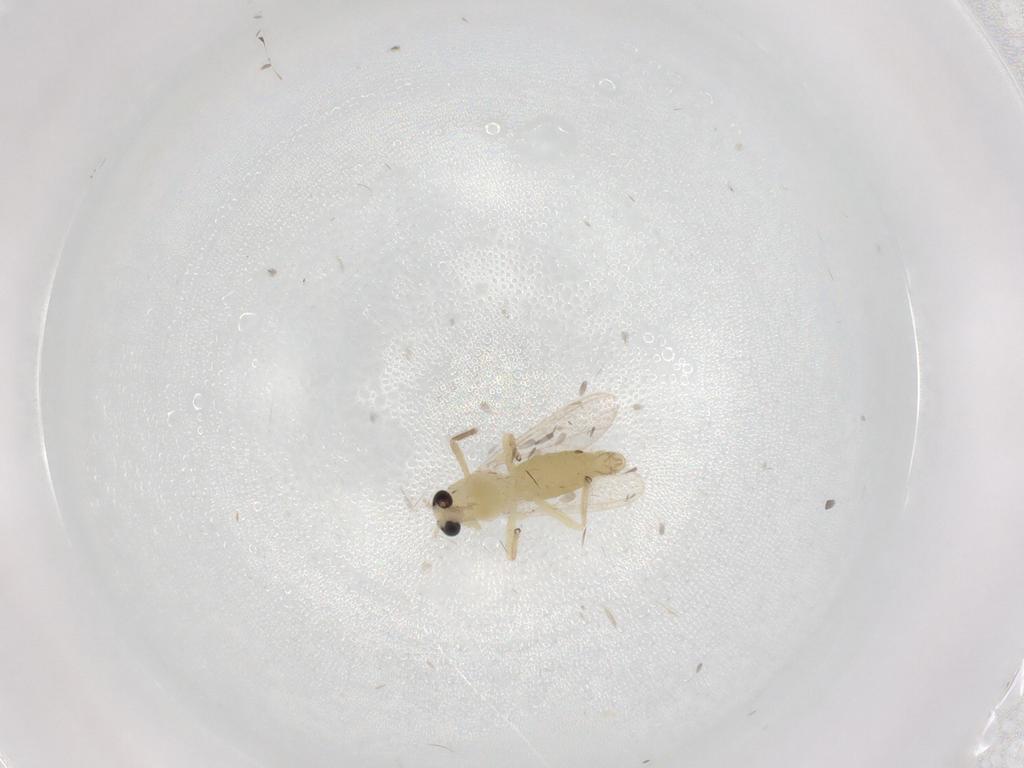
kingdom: Animalia
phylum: Arthropoda
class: Insecta
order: Diptera
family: Chironomidae
